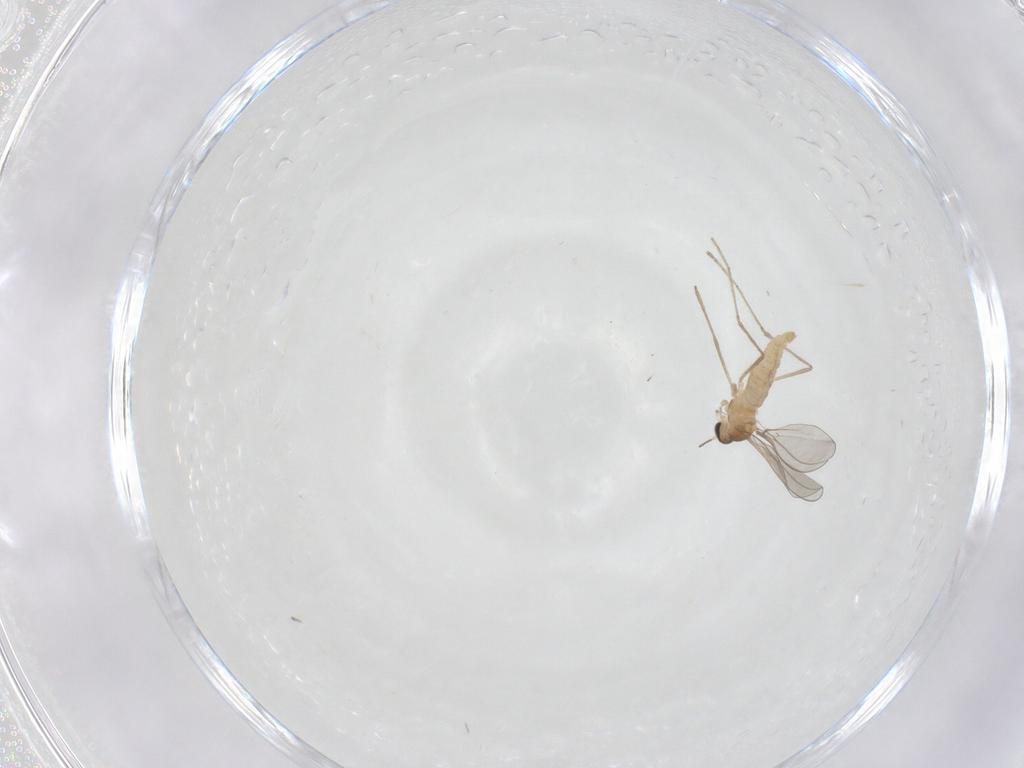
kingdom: Animalia
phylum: Arthropoda
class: Insecta
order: Diptera
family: Cecidomyiidae
